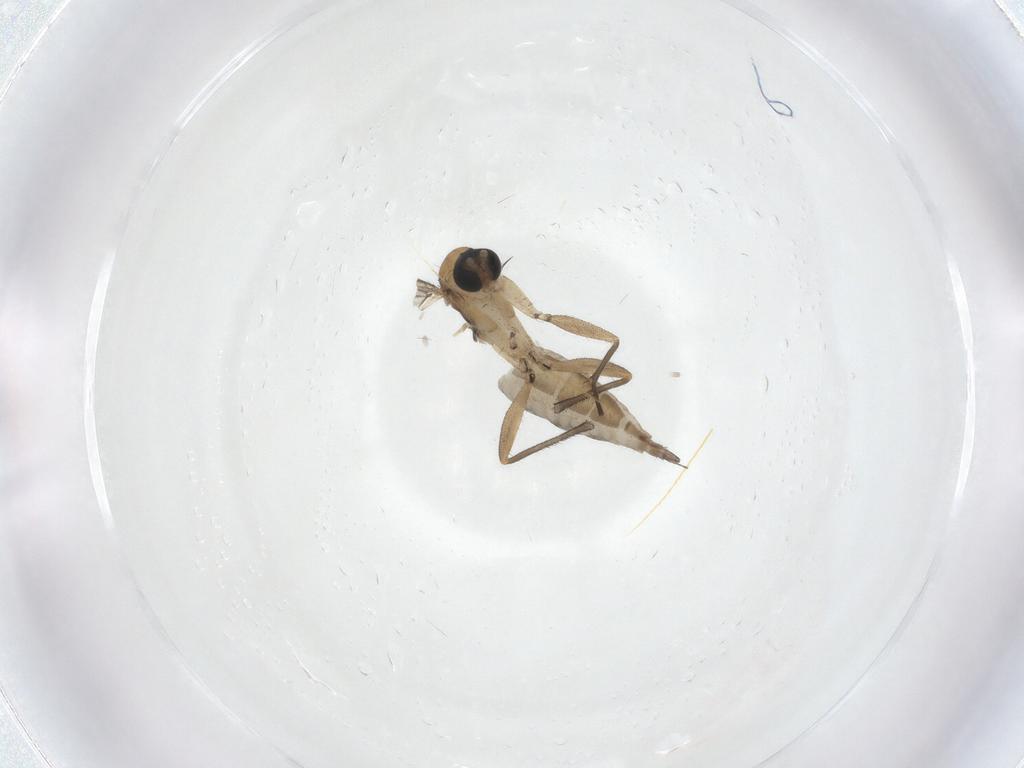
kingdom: Animalia
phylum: Arthropoda
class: Insecta
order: Diptera
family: Sciaridae
